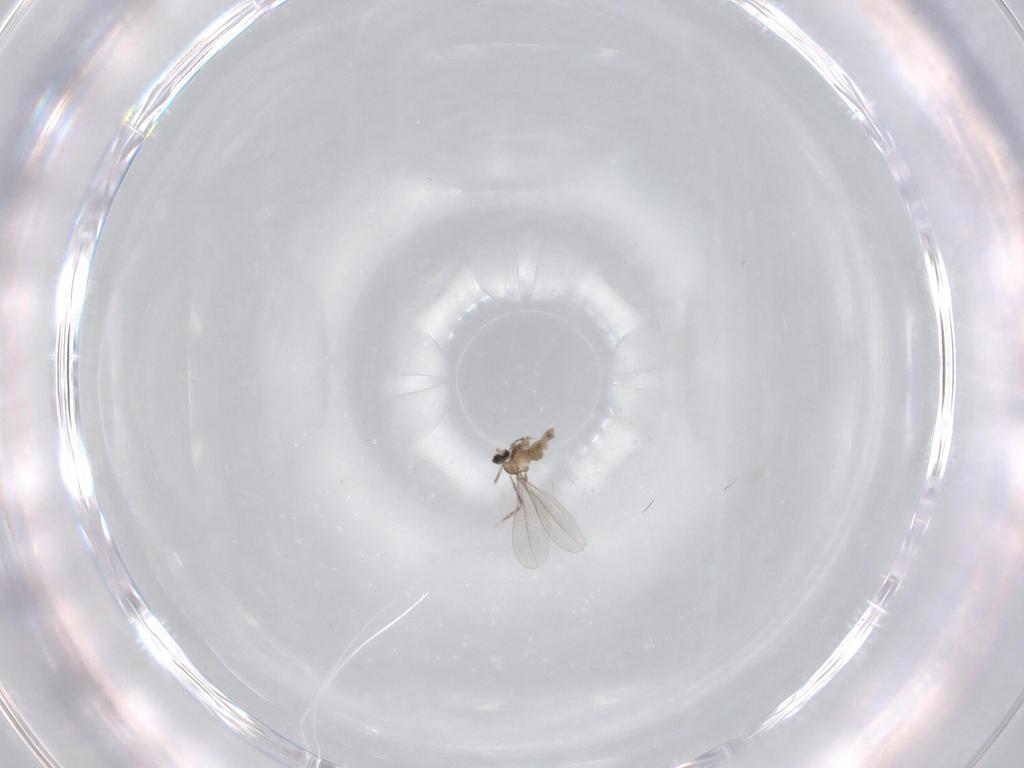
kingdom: Animalia
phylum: Arthropoda
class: Insecta
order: Diptera
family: Cecidomyiidae
